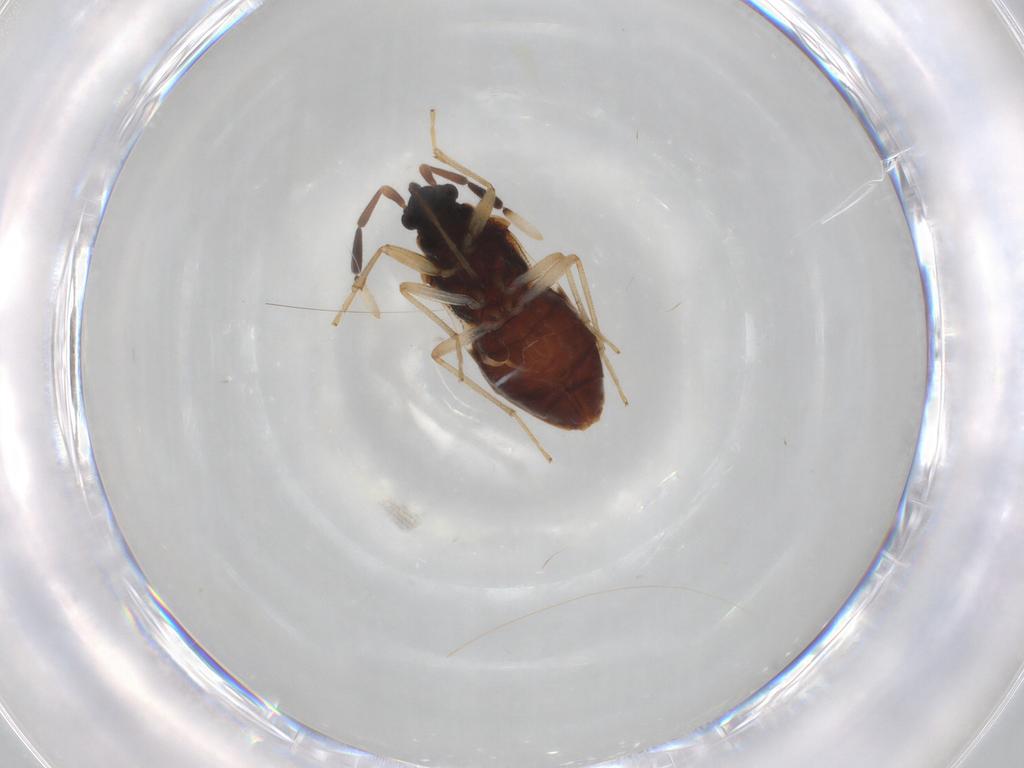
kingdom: Animalia
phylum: Arthropoda
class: Insecta
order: Hemiptera
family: Lygaeidae
